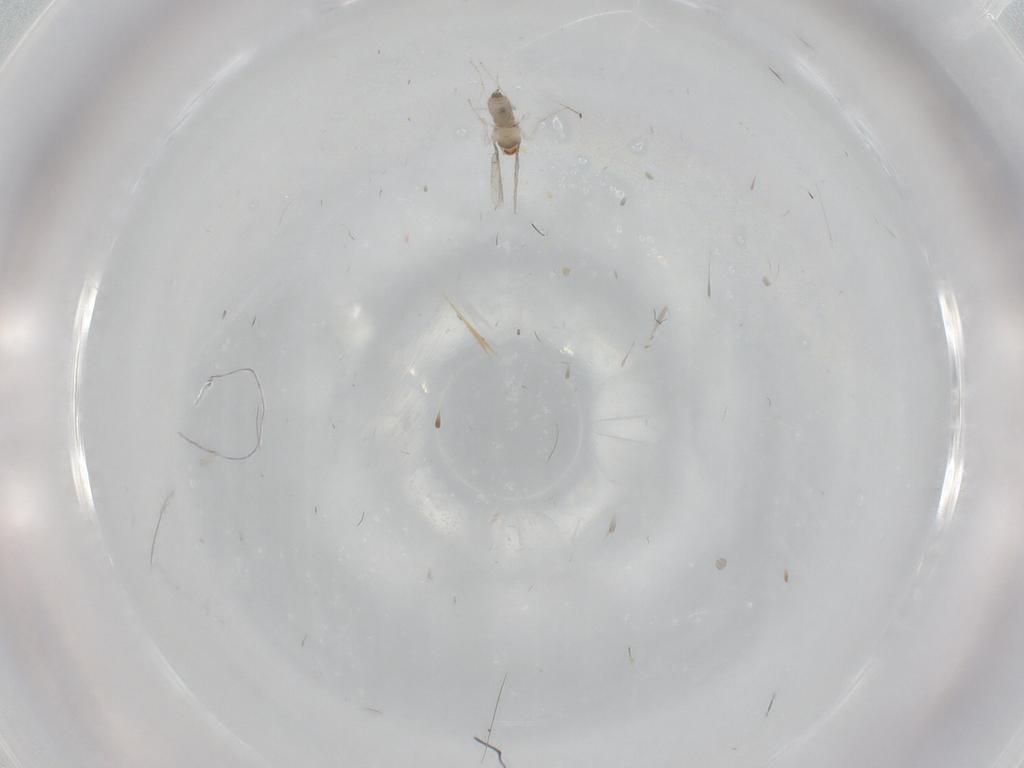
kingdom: Animalia
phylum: Arthropoda
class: Insecta
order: Diptera
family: Cecidomyiidae
